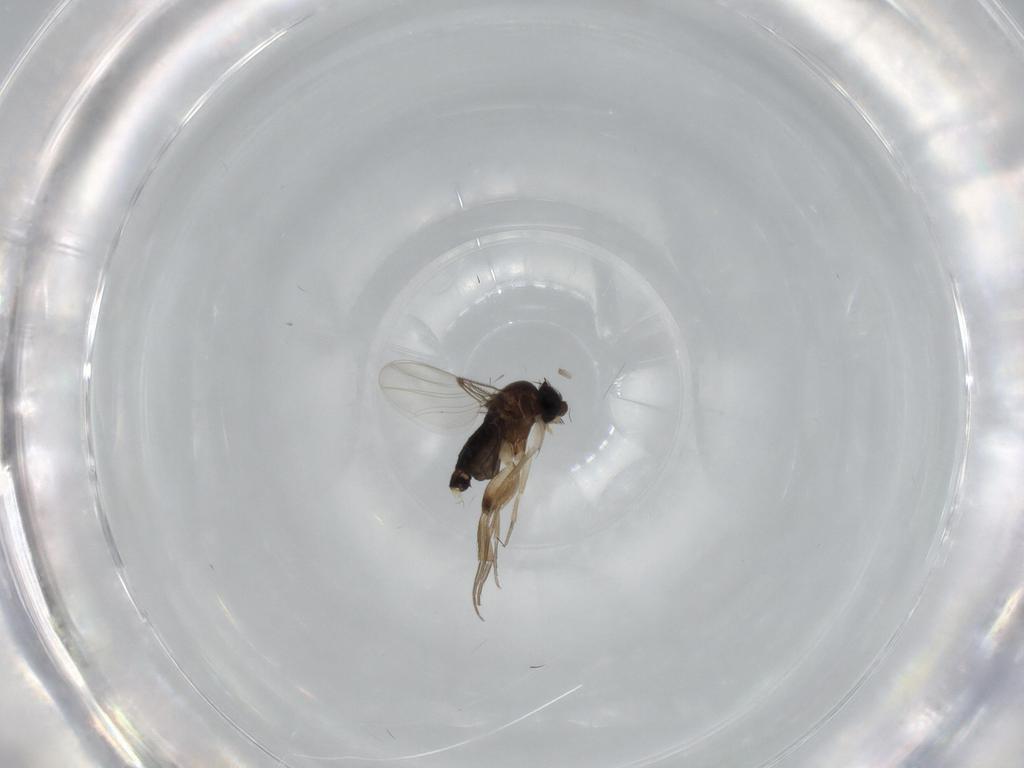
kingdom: Animalia
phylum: Arthropoda
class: Insecta
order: Diptera
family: Phoridae
